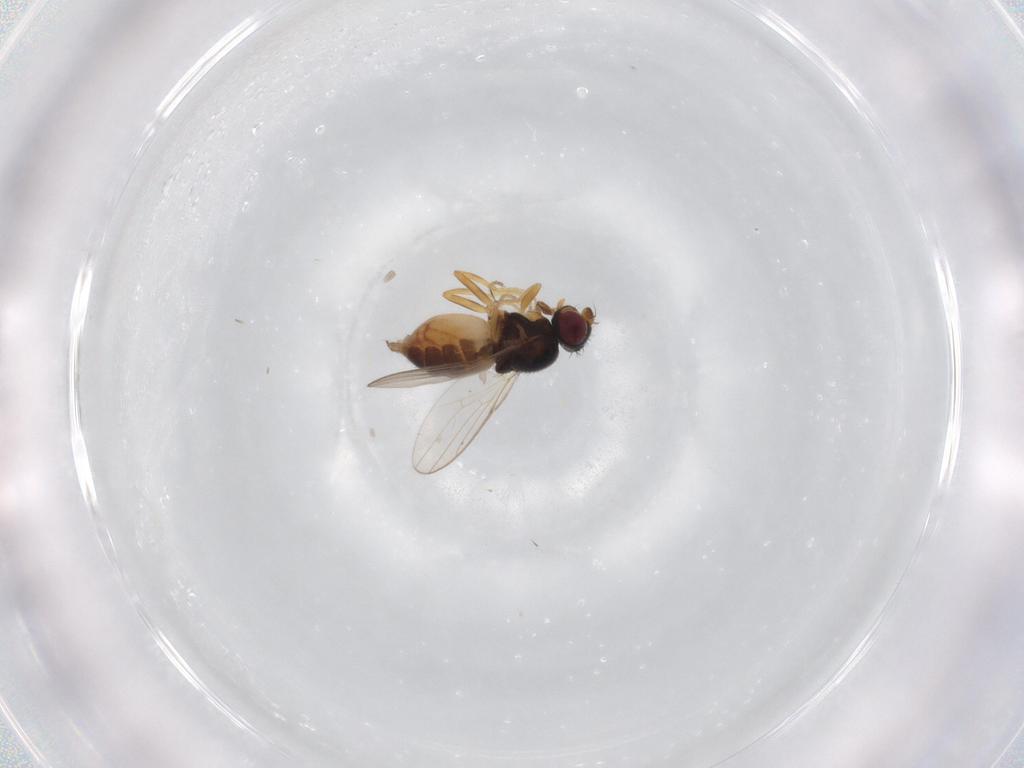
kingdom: Animalia
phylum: Arthropoda
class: Insecta
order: Diptera
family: Chloropidae
